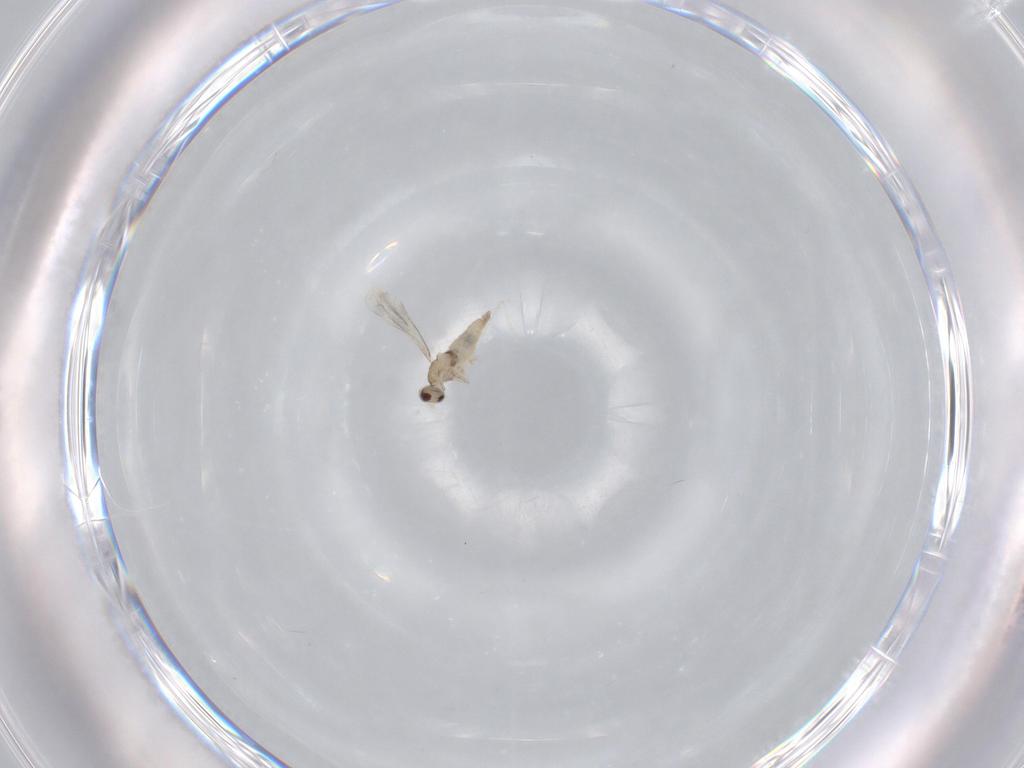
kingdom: Animalia
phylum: Arthropoda
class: Insecta
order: Diptera
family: Cecidomyiidae
